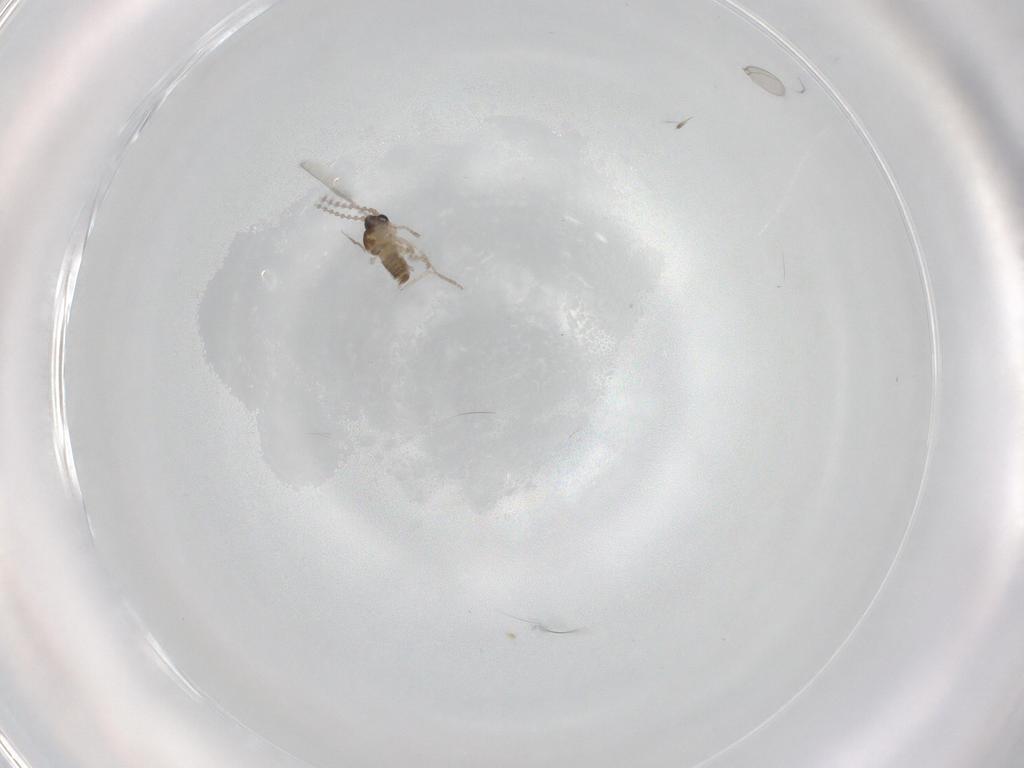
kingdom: Animalia
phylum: Arthropoda
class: Insecta
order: Diptera
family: Cecidomyiidae
